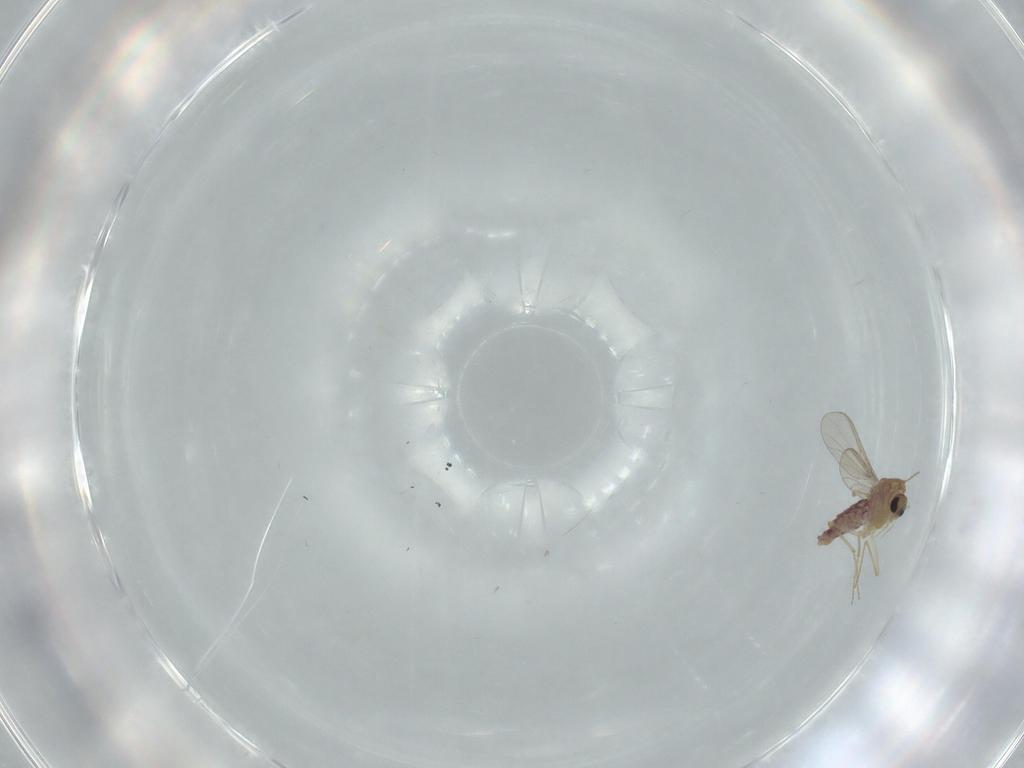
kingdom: Animalia
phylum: Arthropoda
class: Insecta
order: Diptera
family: Chironomidae
